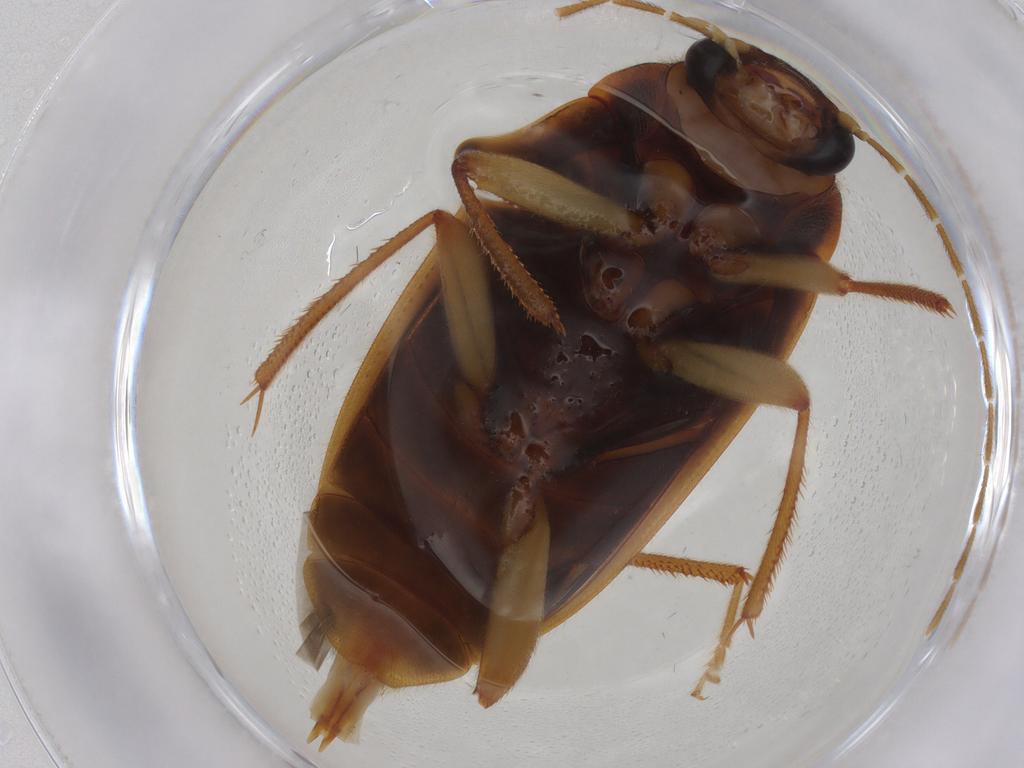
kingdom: Animalia
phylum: Arthropoda
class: Insecta
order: Coleoptera
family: Ptilodactylidae
